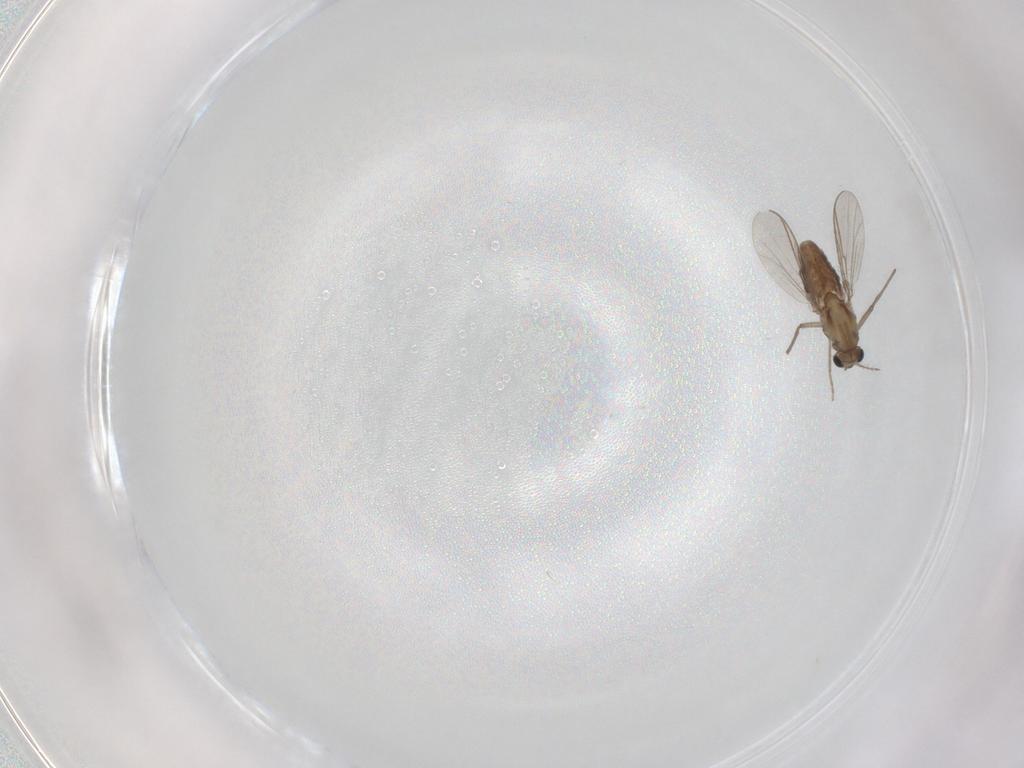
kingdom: Animalia
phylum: Arthropoda
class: Insecta
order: Diptera
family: Chironomidae
